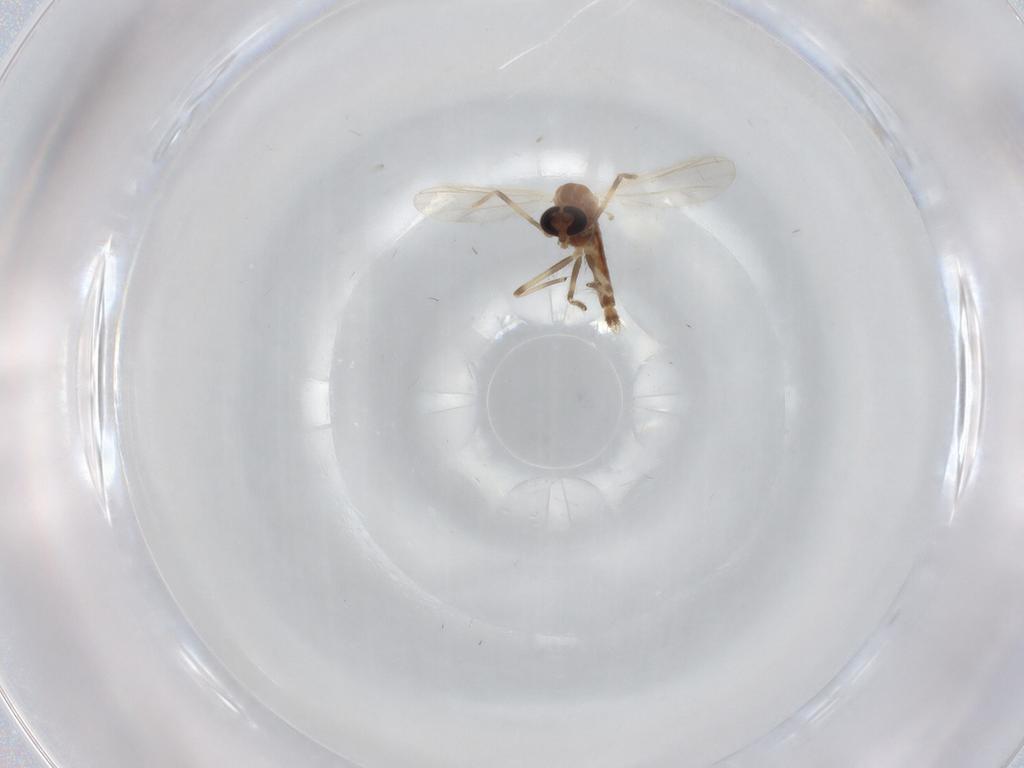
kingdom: Animalia
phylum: Arthropoda
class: Insecta
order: Diptera
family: Chironomidae
